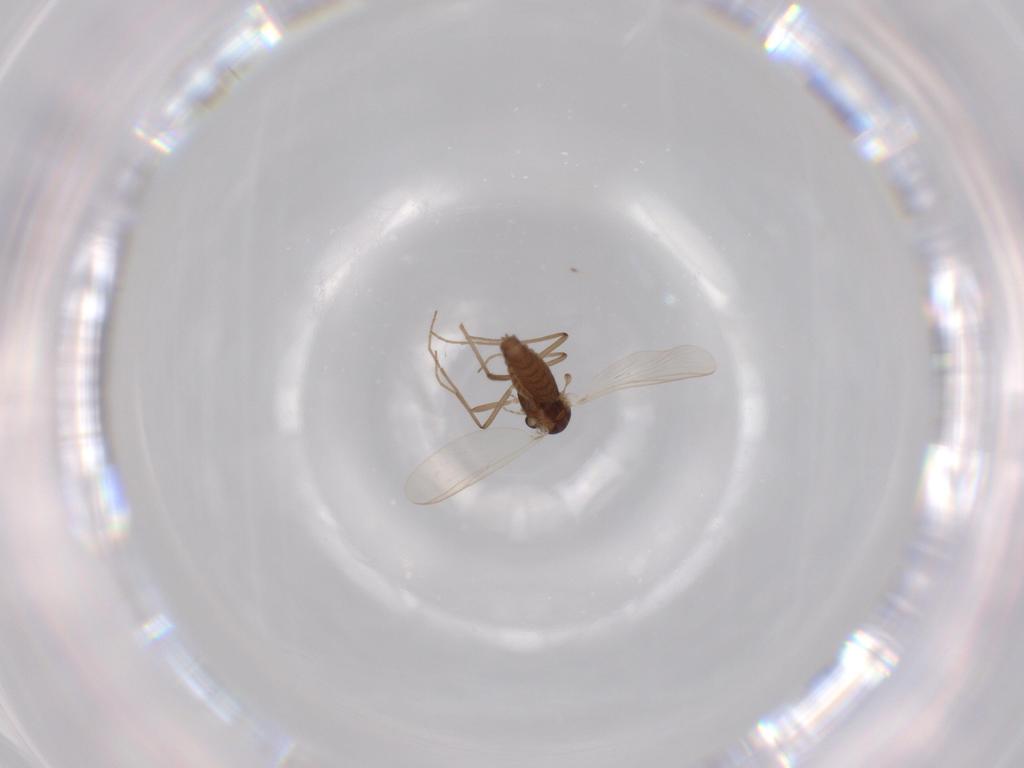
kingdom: Animalia
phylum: Arthropoda
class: Insecta
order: Diptera
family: Chironomidae
